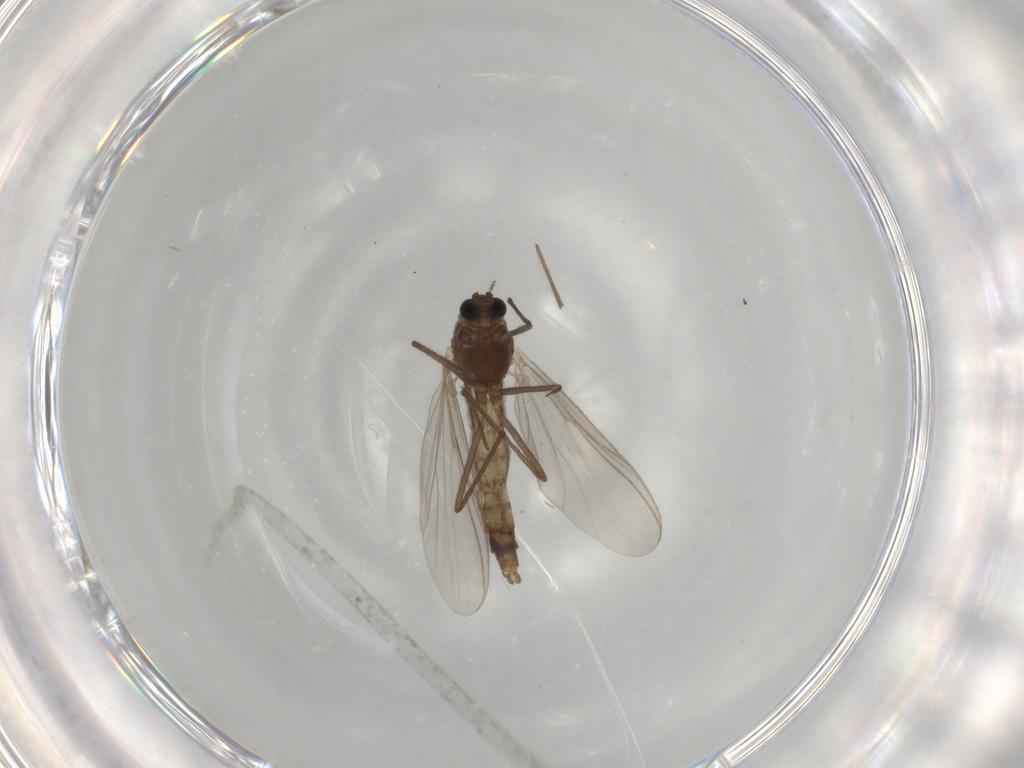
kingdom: Animalia
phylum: Arthropoda
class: Insecta
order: Diptera
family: Chironomidae
